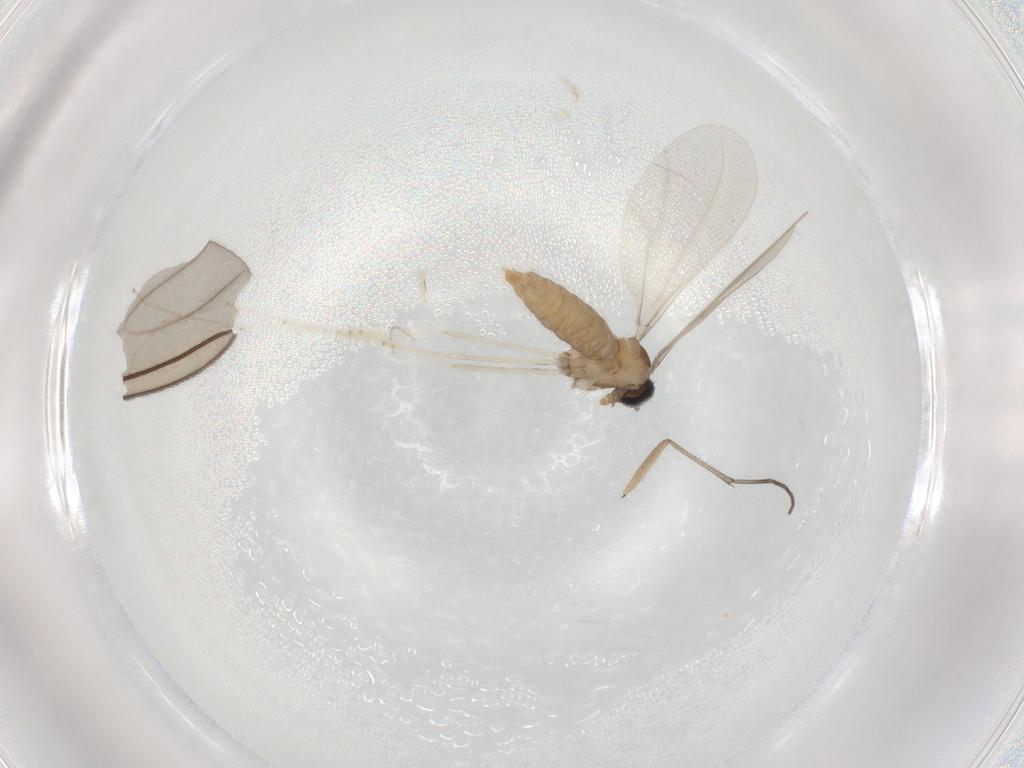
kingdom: Animalia
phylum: Arthropoda
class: Insecta
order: Diptera
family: Cecidomyiidae
